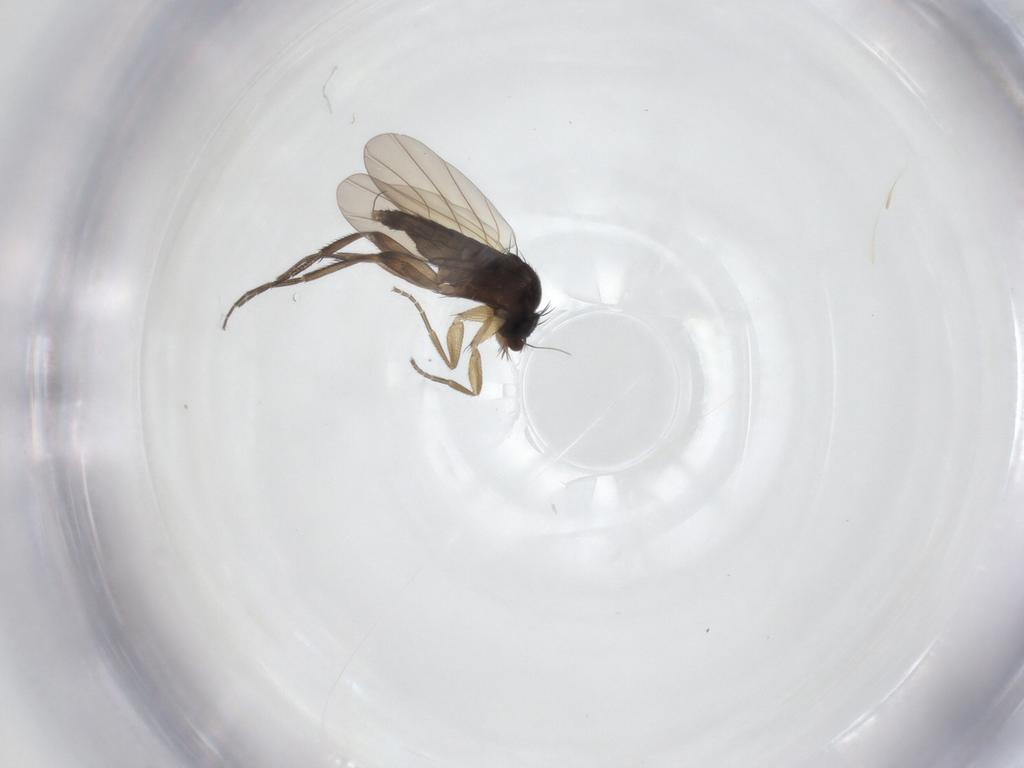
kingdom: Animalia
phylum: Arthropoda
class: Insecta
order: Diptera
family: Phoridae
